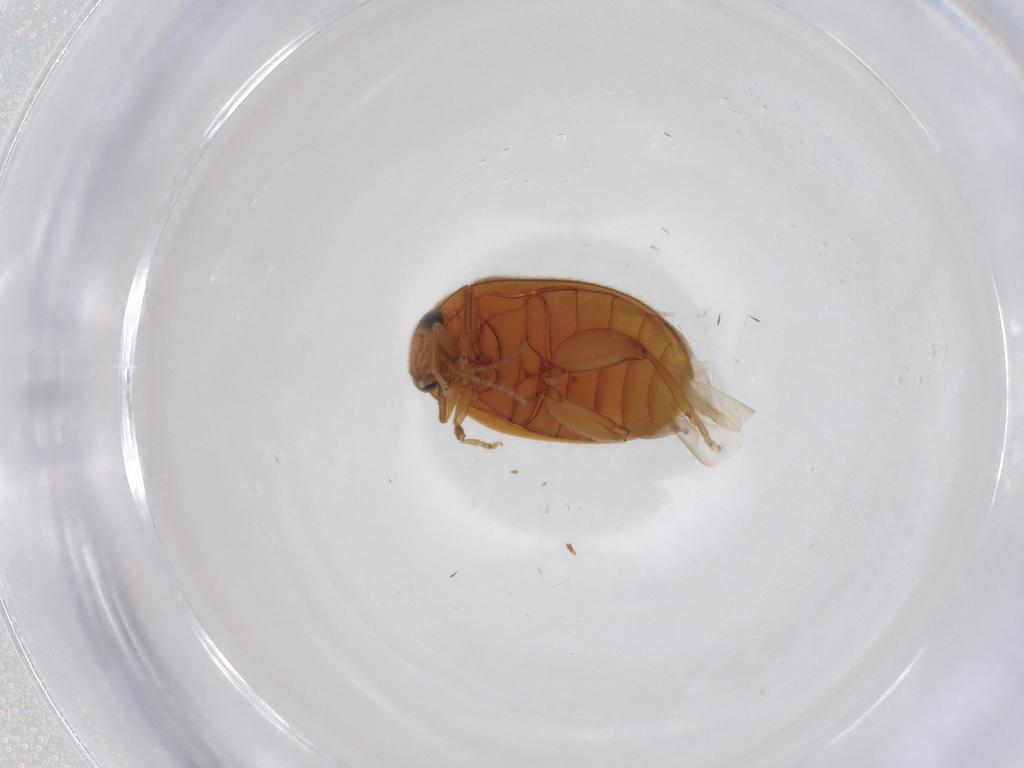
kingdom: Animalia
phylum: Arthropoda
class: Insecta
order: Coleoptera
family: Scirtidae
